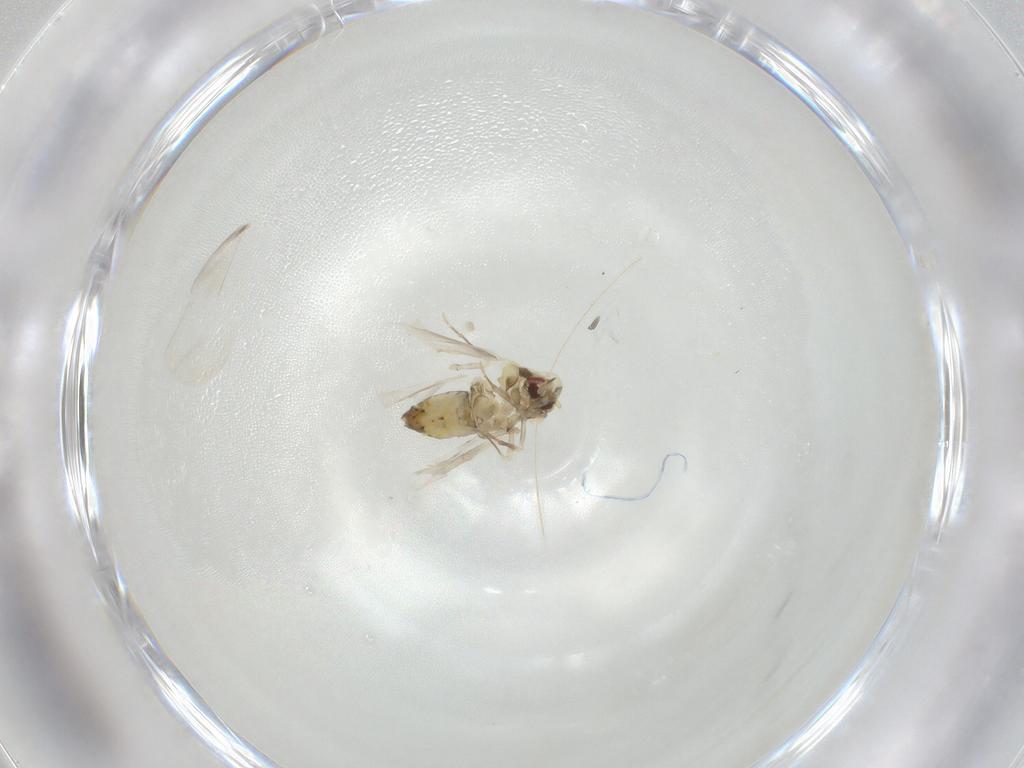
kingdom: Animalia
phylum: Arthropoda
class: Insecta
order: Hemiptera
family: Aleyrodidae
